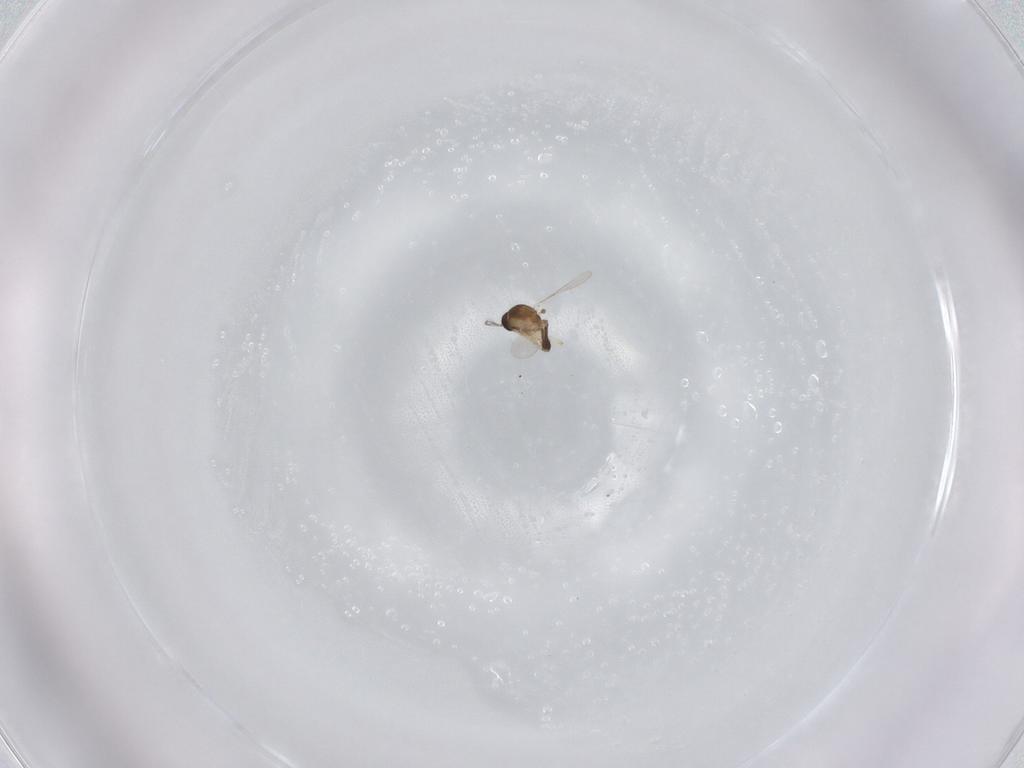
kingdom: Animalia
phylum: Arthropoda
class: Insecta
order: Diptera
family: Ceratopogonidae
